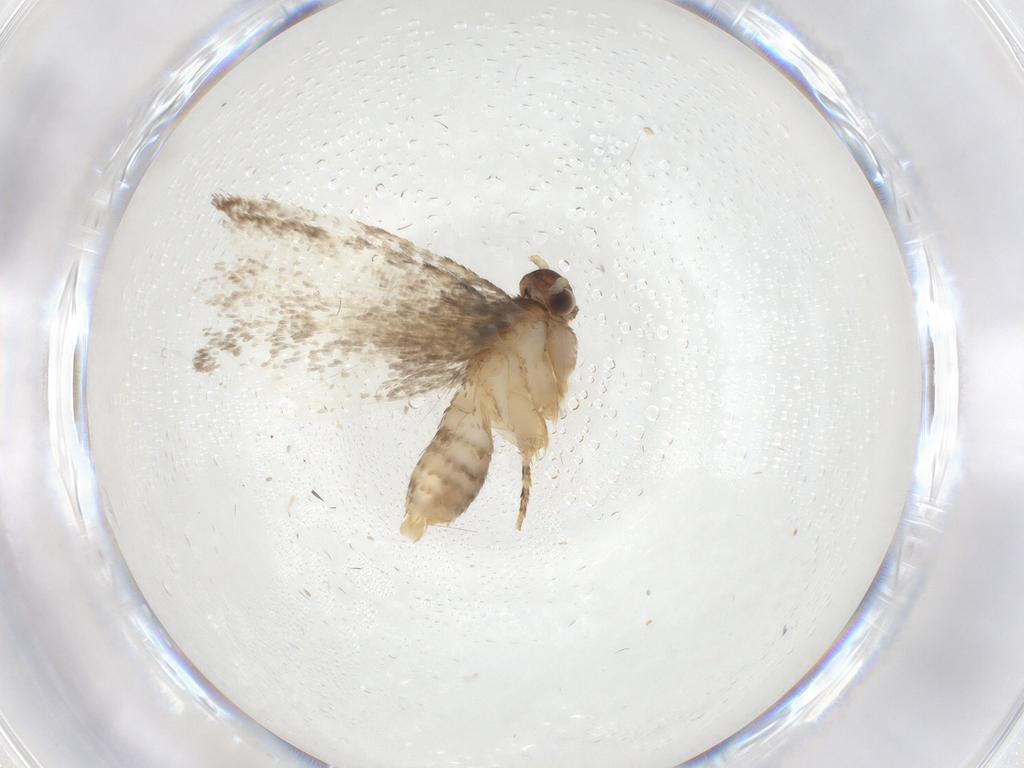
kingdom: Animalia
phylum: Arthropoda
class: Insecta
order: Lepidoptera
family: Dryadaulidae
